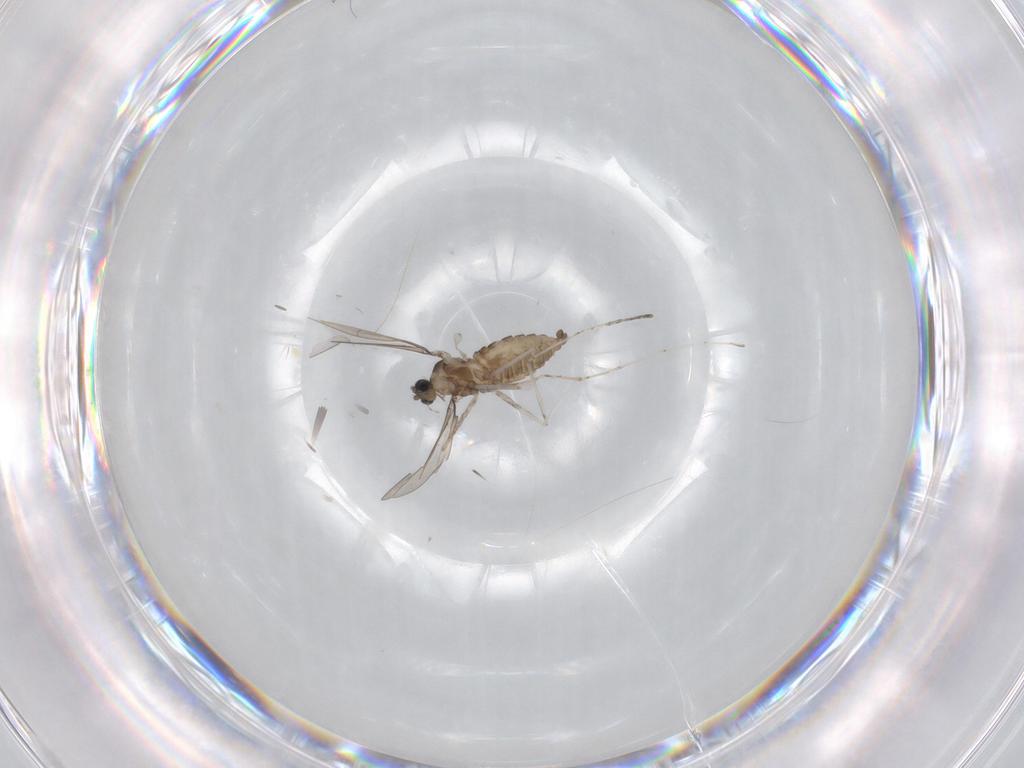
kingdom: Animalia
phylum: Arthropoda
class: Insecta
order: Diptera
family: Cecidomyiidae
